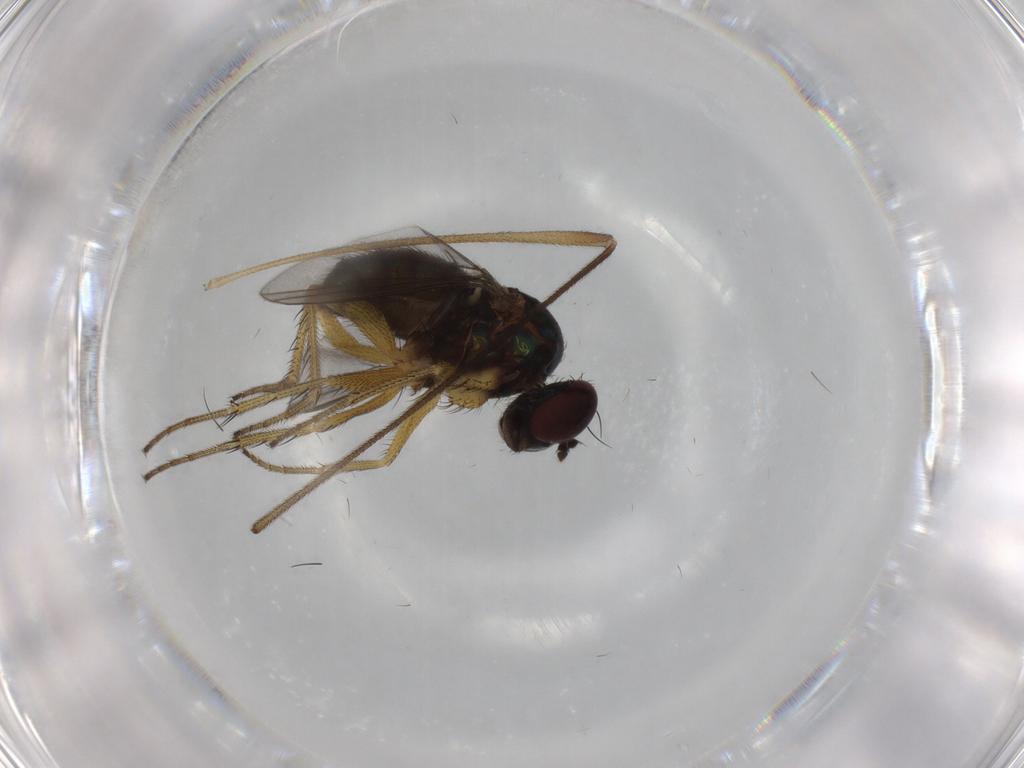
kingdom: Animalia
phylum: Arthropoda
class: Insecta
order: Diptera
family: Dolichopodidae
